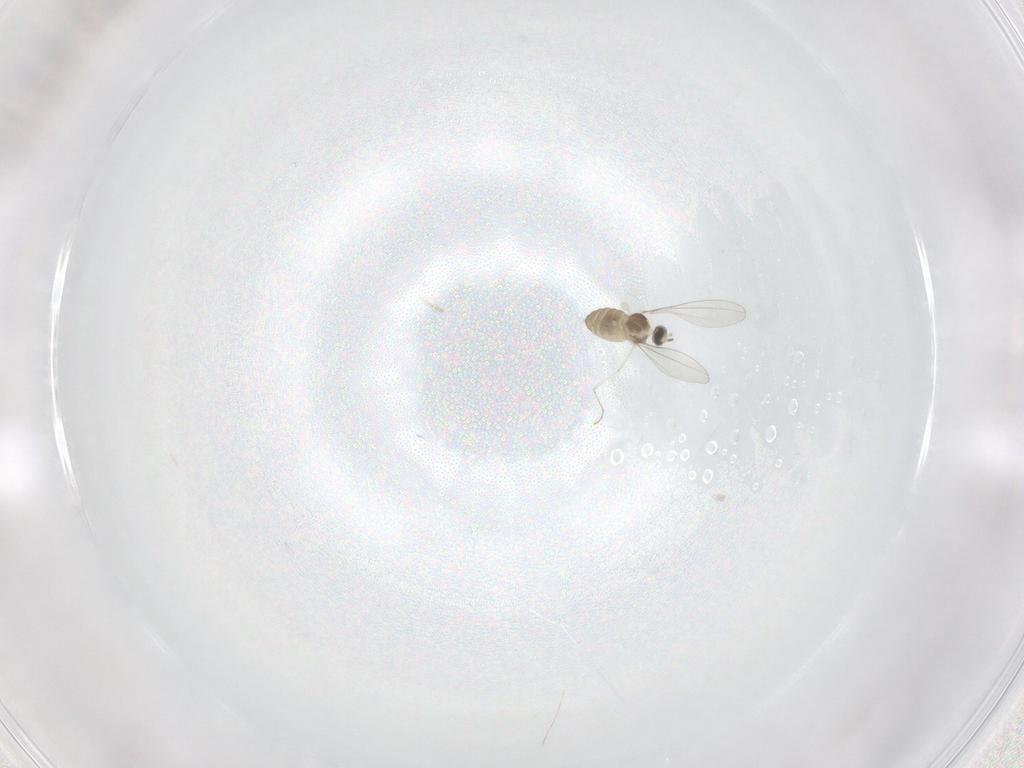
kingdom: Animalia
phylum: Arthropoda
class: Insecta
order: Diptera
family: Cecidomyiidae
